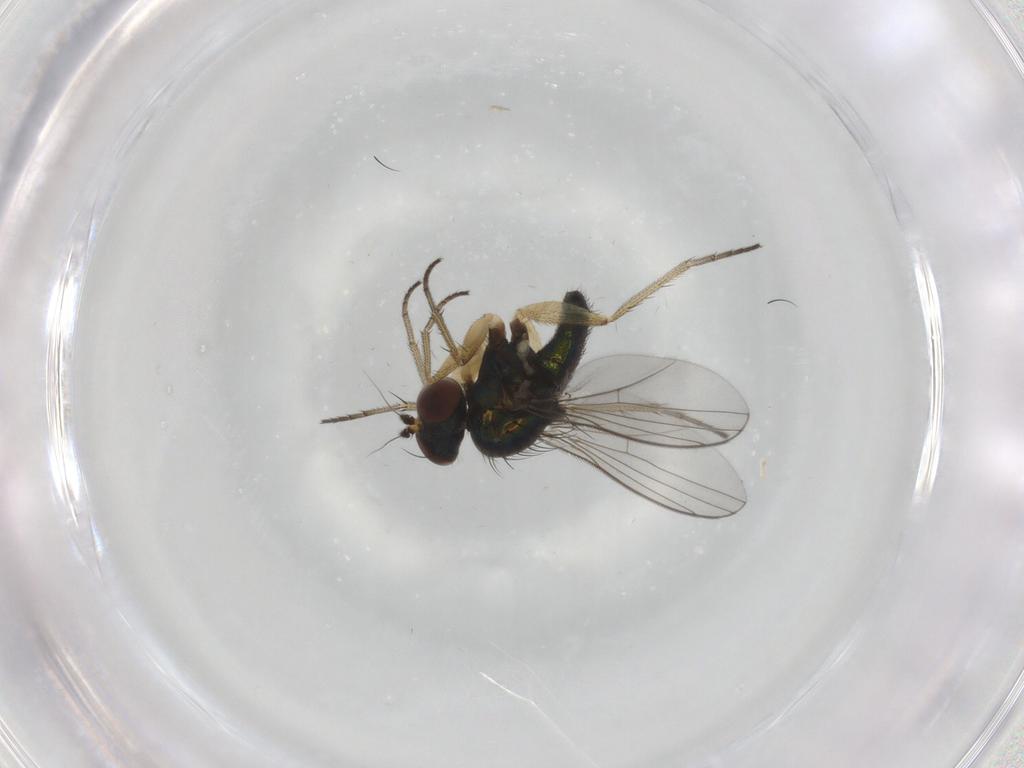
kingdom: Animalia
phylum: Arthropoda
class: Insecta
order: Diptera
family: Dolichopodidae
